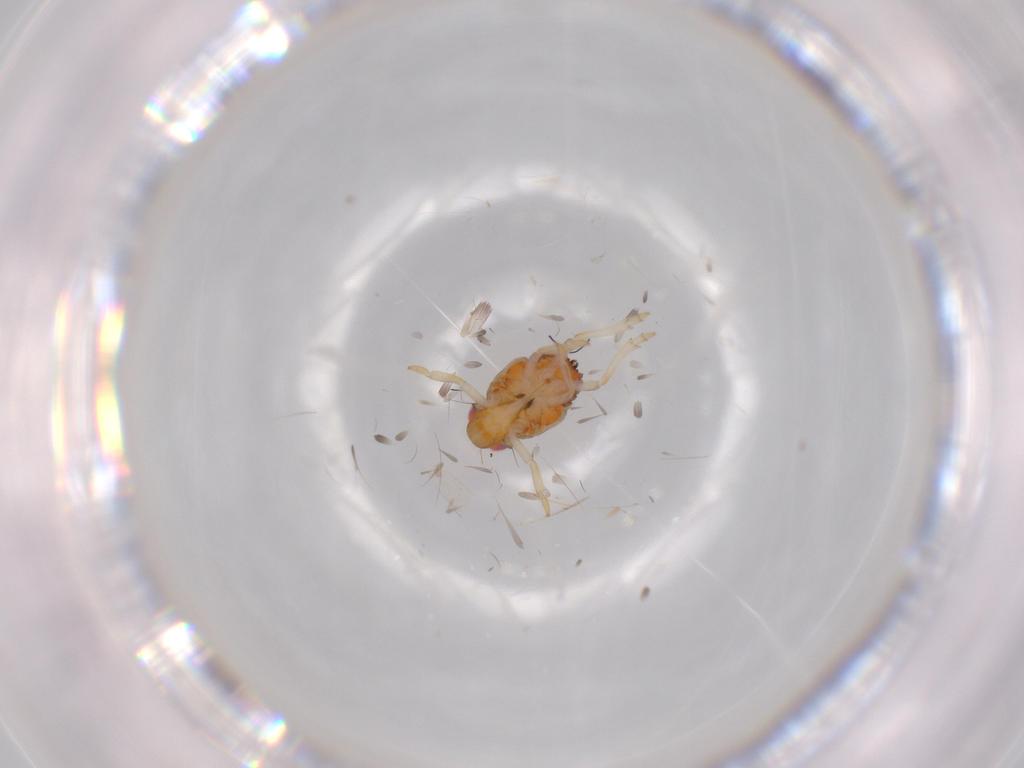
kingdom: Animalia
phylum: Arthropoda
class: Insecta
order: Hemiptera
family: Issidae
